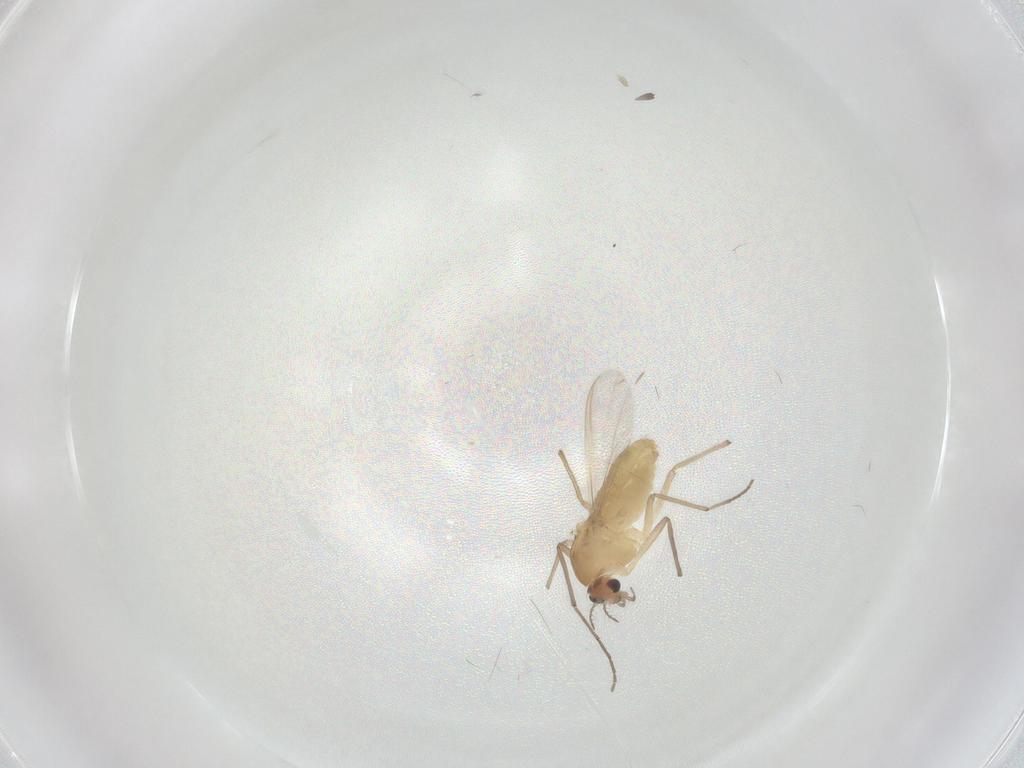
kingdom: Animalia
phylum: Arthropoda
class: Insecta
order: Diptera
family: Chironomidae
